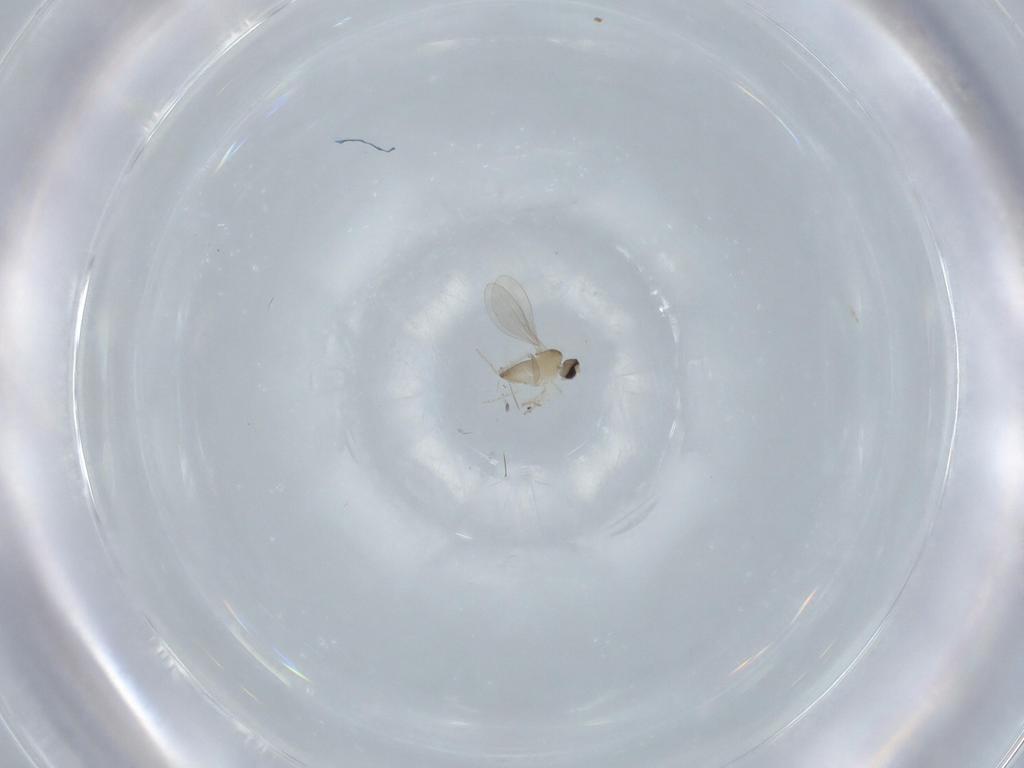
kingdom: Animalia
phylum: Arthropoda
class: Insecta
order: Diptera
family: Cecidomyiidae
